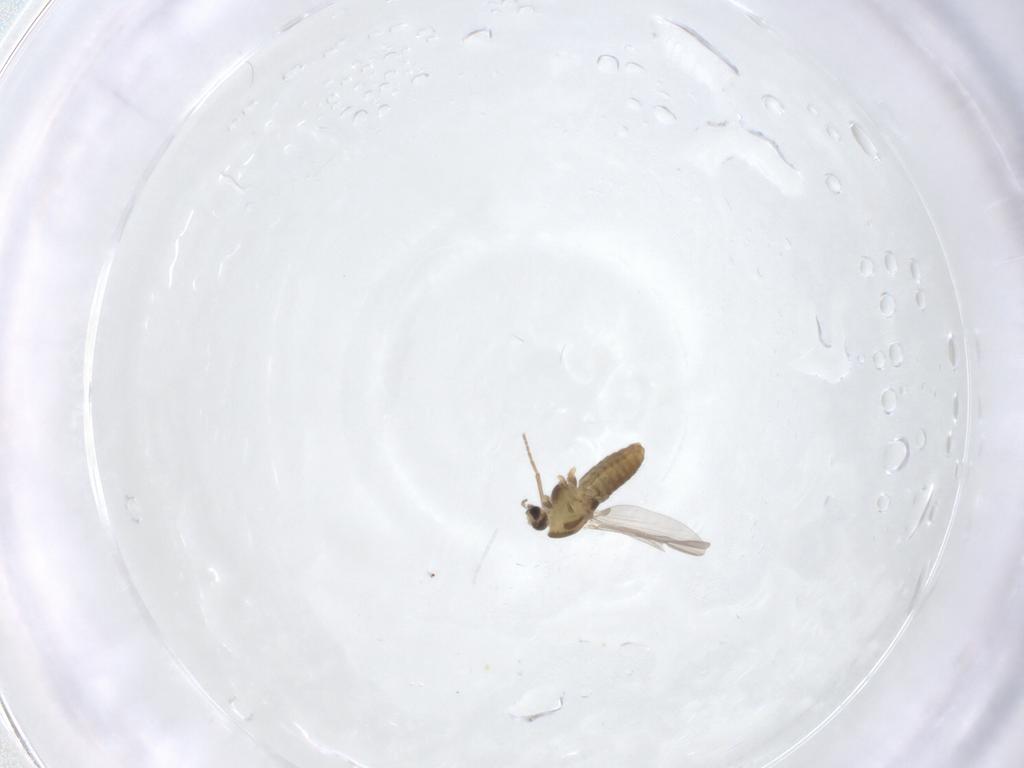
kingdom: Animalia
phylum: Arthropoda
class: Insecta
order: Diptera
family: Chironomidae
